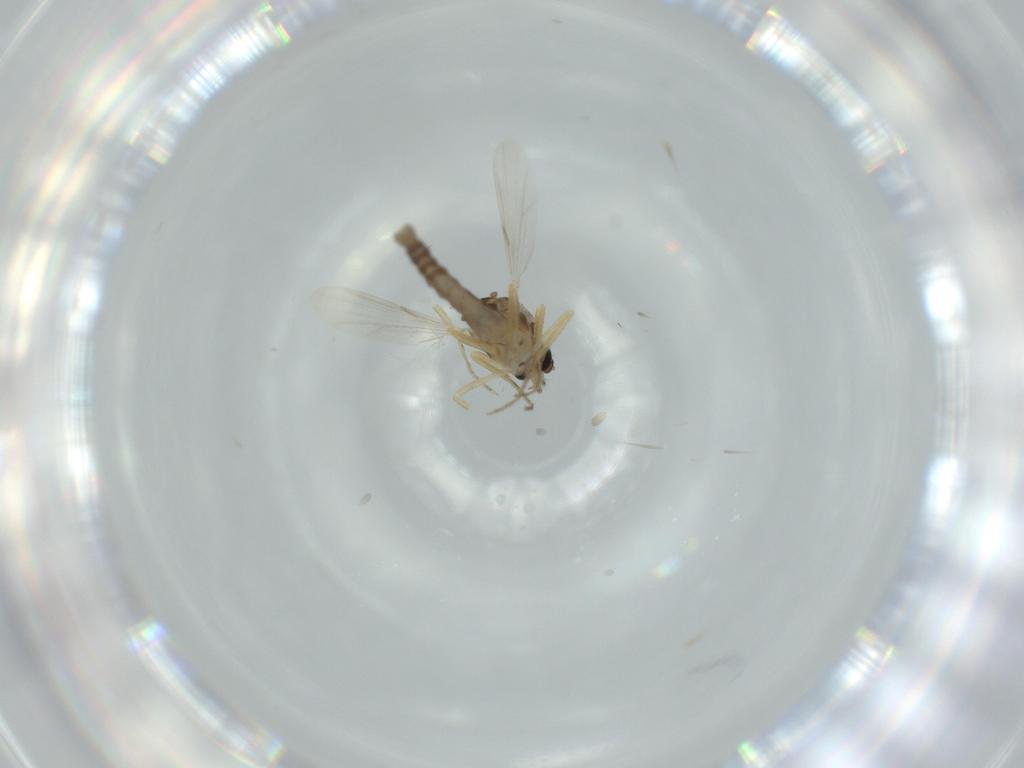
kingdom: Animalia
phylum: Arthropoda
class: Insecta
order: Diptera
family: Ceratopogonidae
